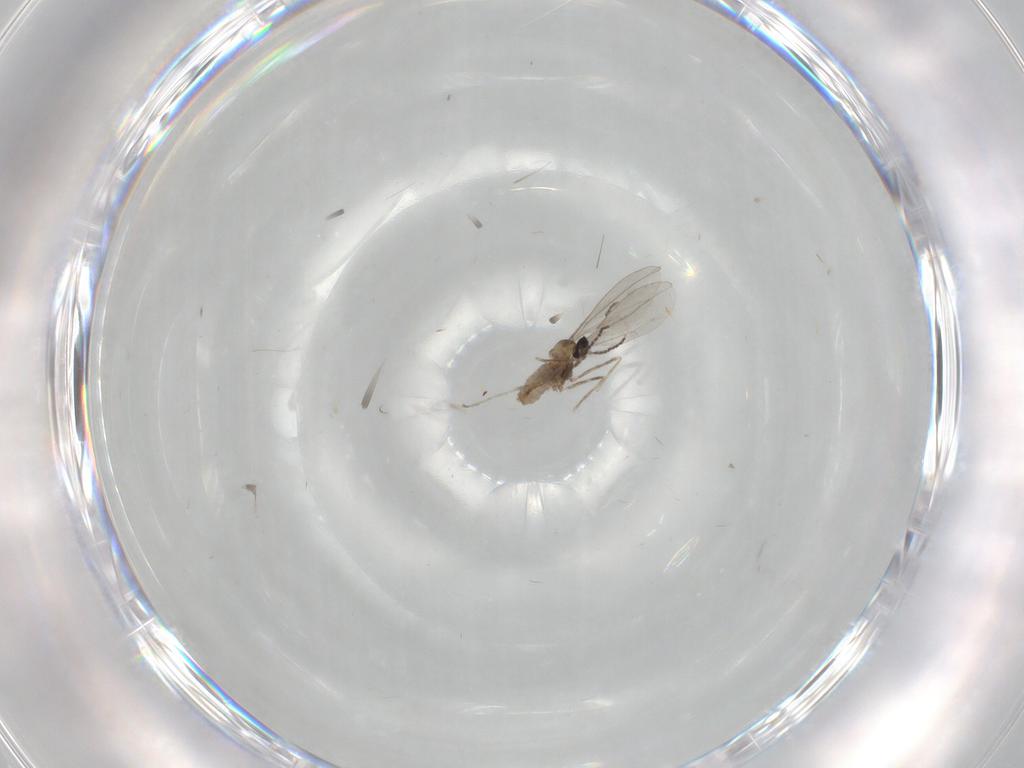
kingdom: Animalia
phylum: Arthropoda
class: Insecta
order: Diptera
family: Cecidomyiidae
